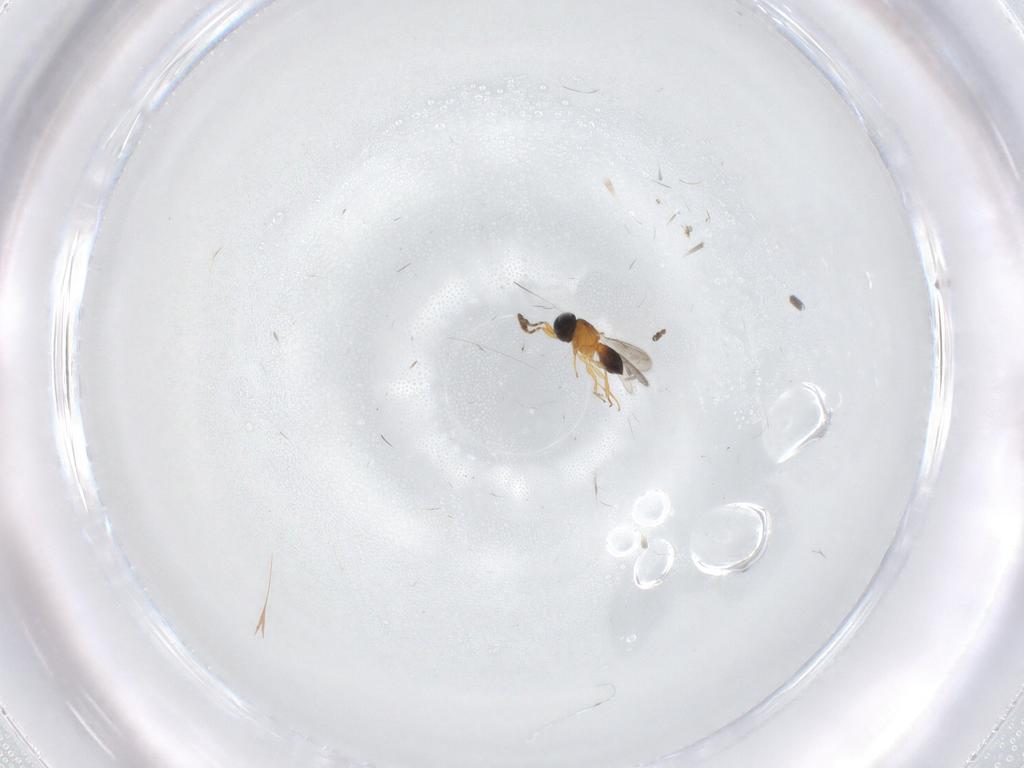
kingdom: Animalia
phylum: Arthropoda
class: Insecta
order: Hymenoptera
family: Scelionidae
